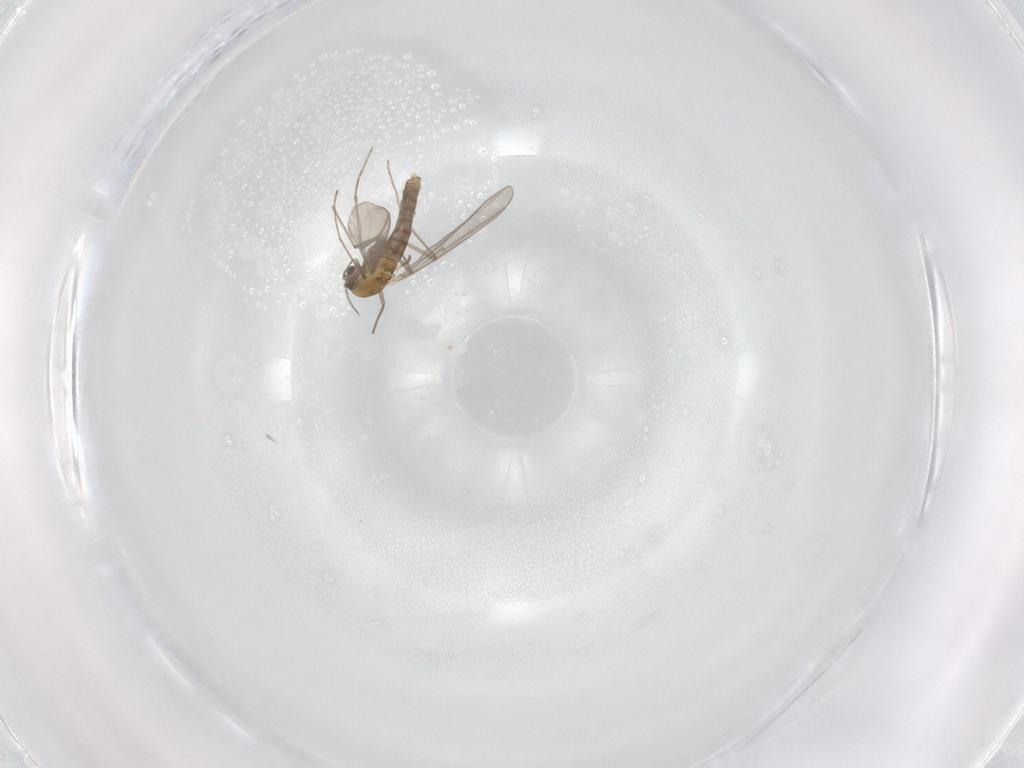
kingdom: Animalia
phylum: Arthropoda
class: Insecta
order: Diptera
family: Chironomidae
